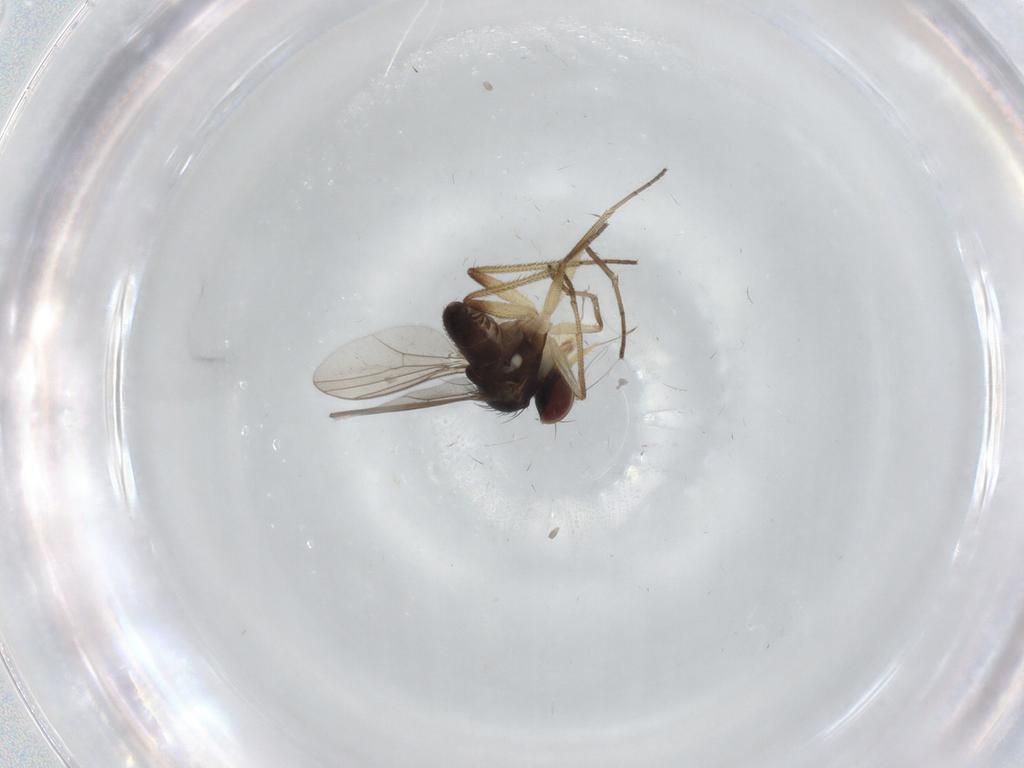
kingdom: Animalia
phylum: Arthropoda
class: Insecta
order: Diptera
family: Dolichopodidae
